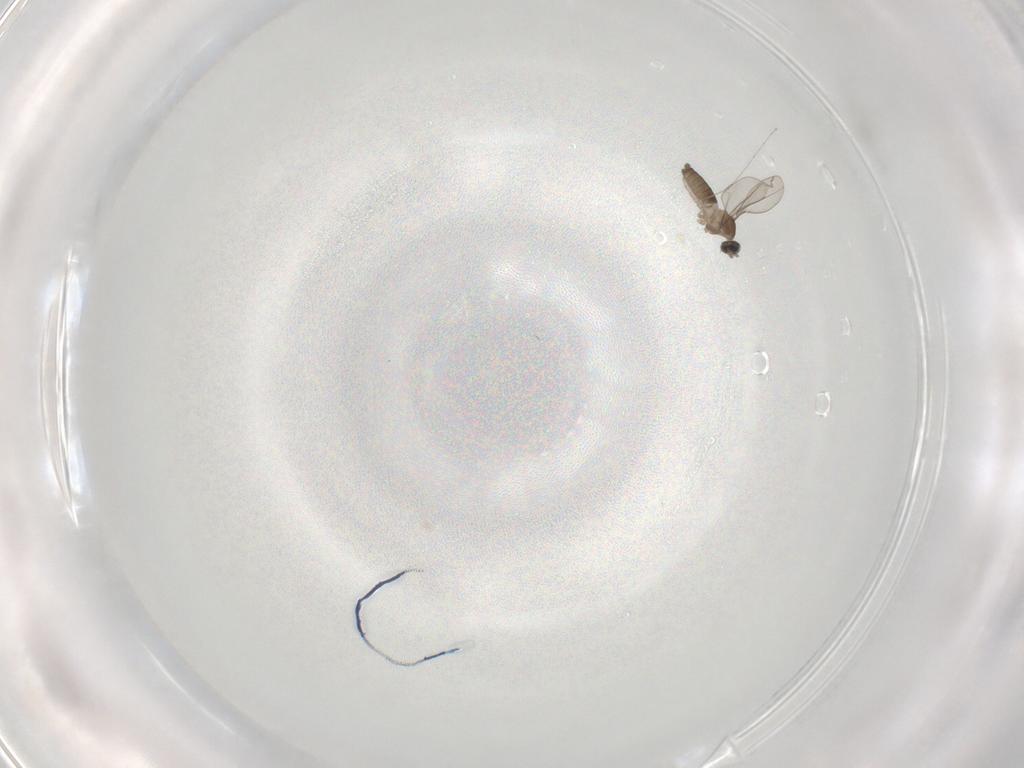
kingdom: Animalia
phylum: Arthropoda
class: Insecta
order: Diptera
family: Cecidomyiidae
